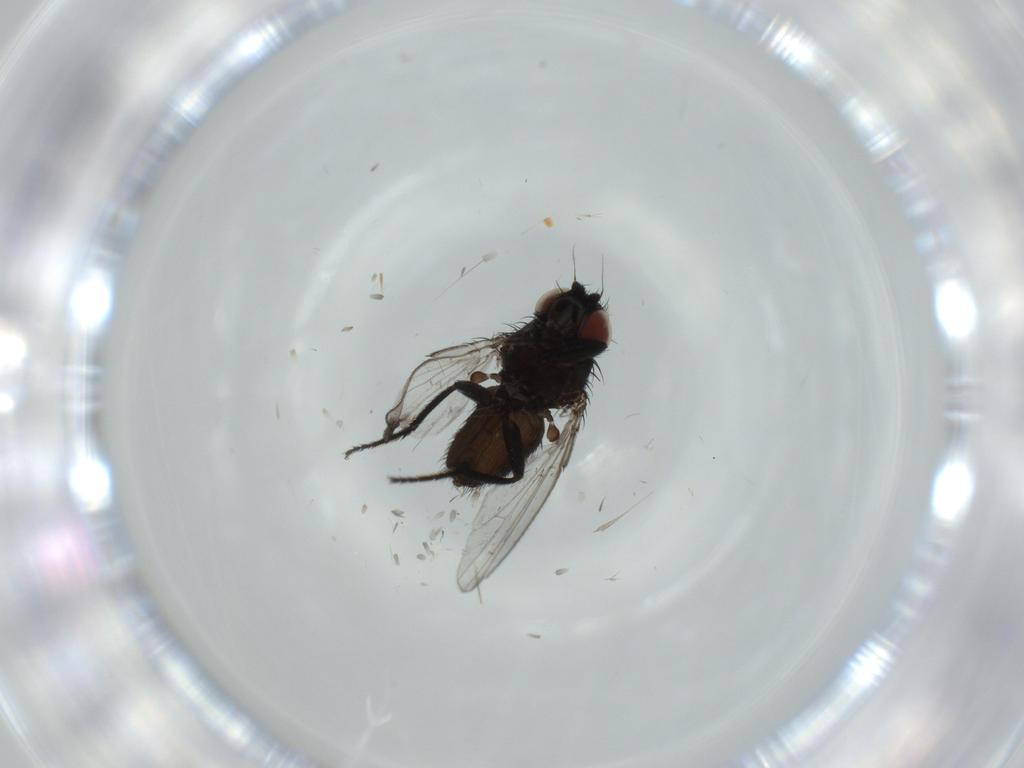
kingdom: Animalia
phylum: Arthropoda
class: Insecta
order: Diptera
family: Milichiidae
